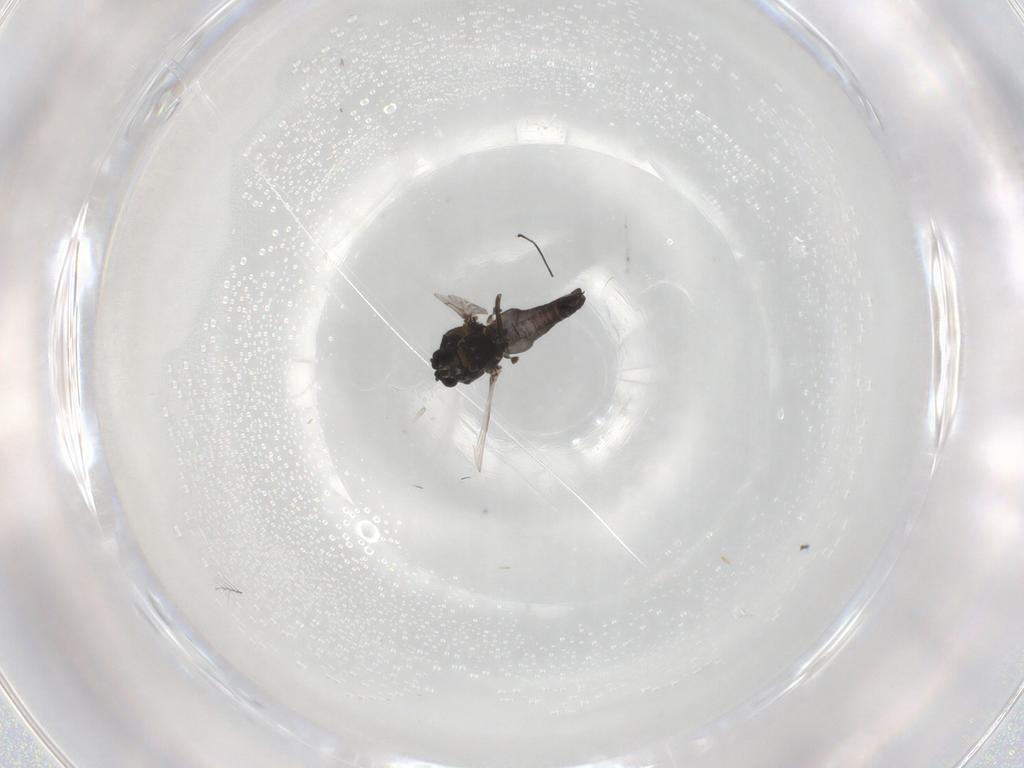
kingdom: Animalia
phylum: Arthropoda
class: Insecta
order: Diptera
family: Ceratopogonidae
